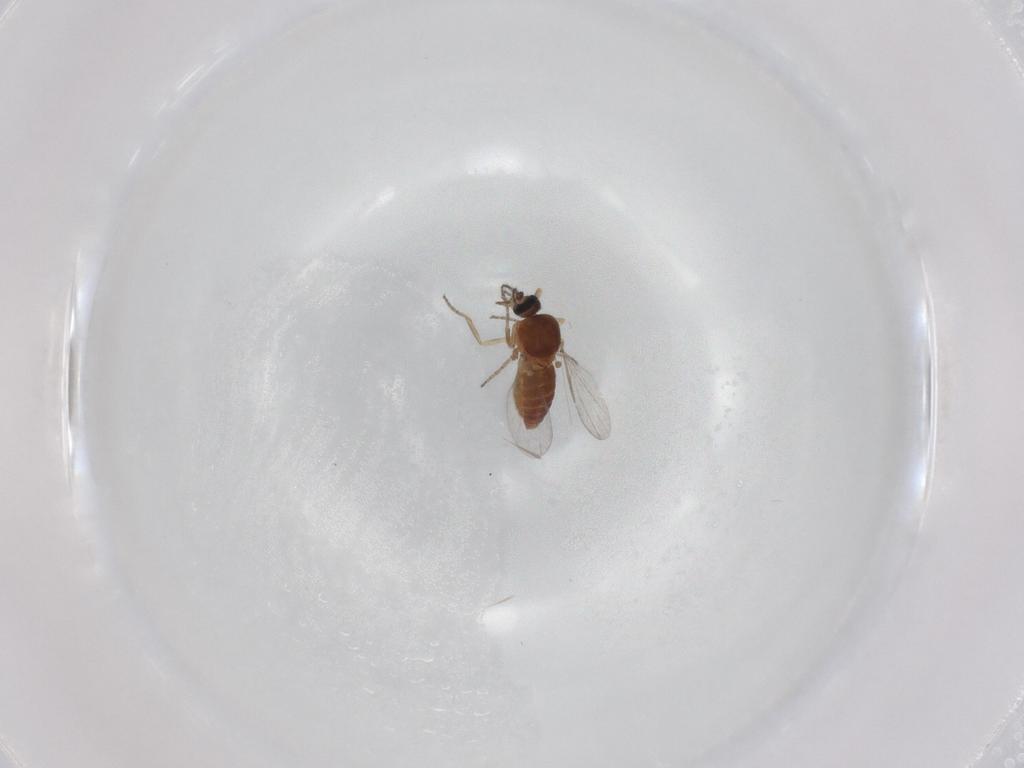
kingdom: Animalia
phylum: Arthropoda
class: Insecta
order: Diptera
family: Ceratopogonidae
